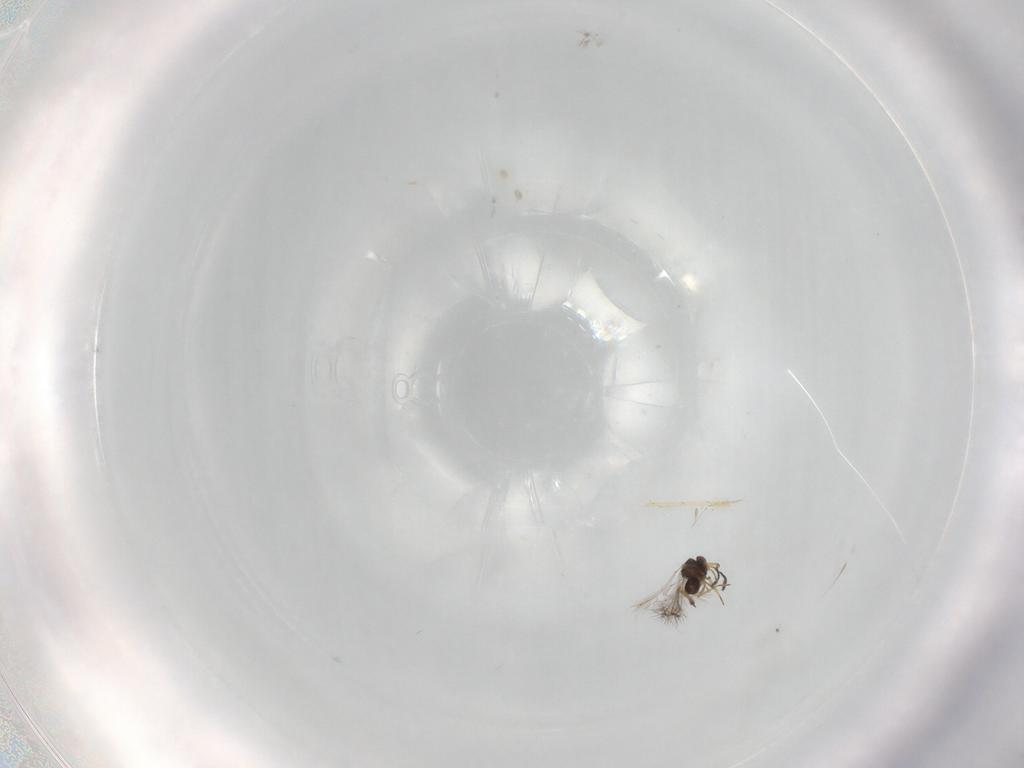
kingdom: Animalia
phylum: Arthropoda
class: Insecta
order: Hymenoptera
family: Mymaridae
